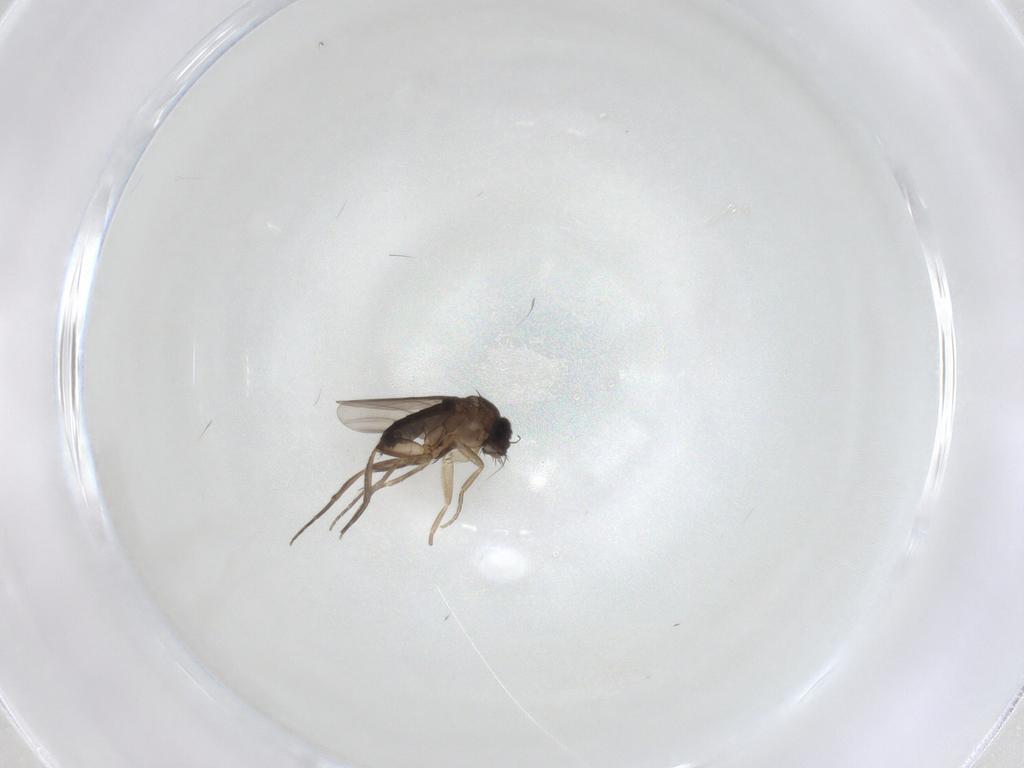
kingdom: Animalia
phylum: Arthropoda
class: Insecta
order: Diptera
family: Phoridae
